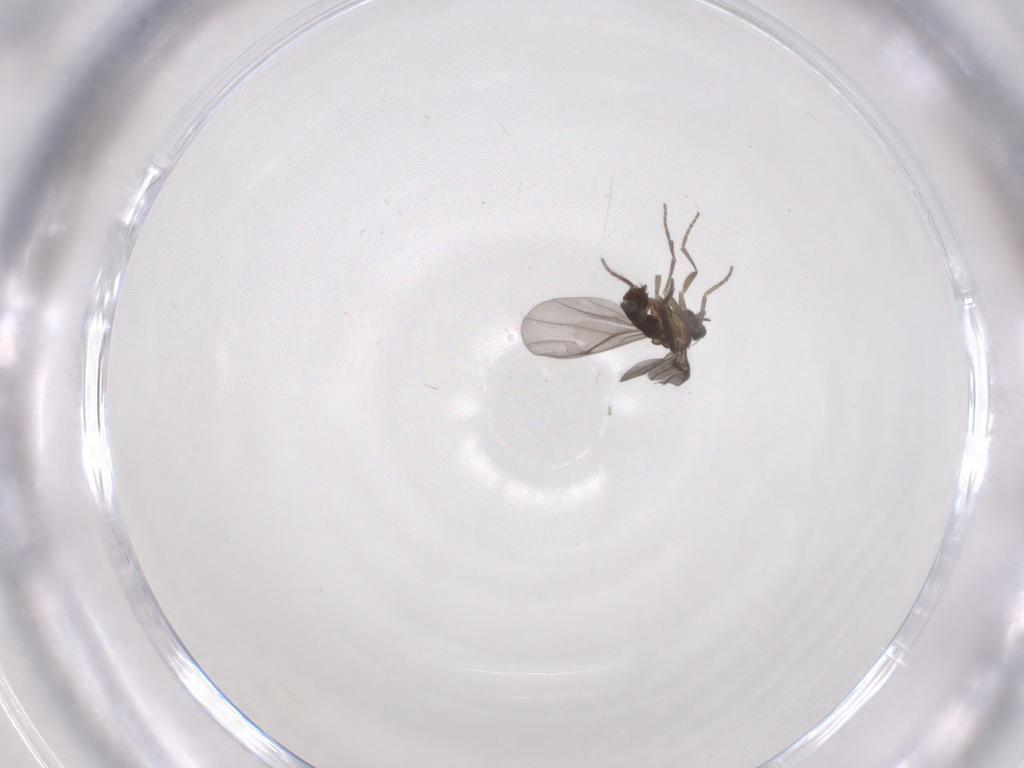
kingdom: Animalia
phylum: Arthropoda
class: Insecta
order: Diptera
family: Phoridae
